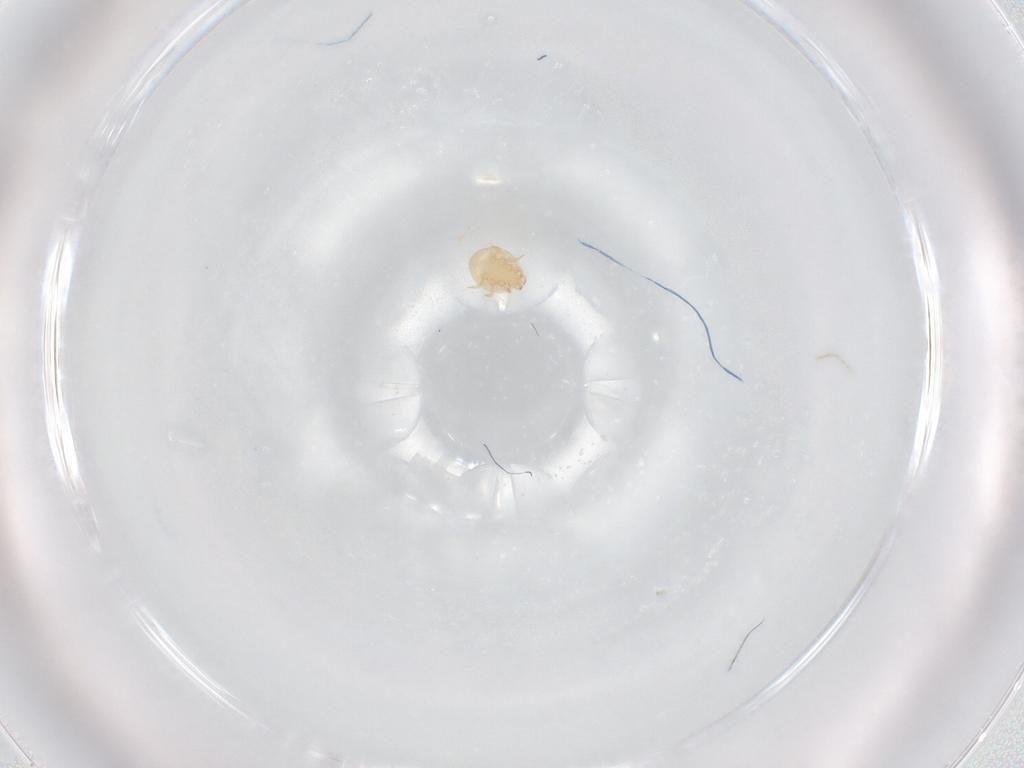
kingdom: Animalia
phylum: Arthropoda
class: Arachnida
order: Mesostigmata
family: Trematuridae
